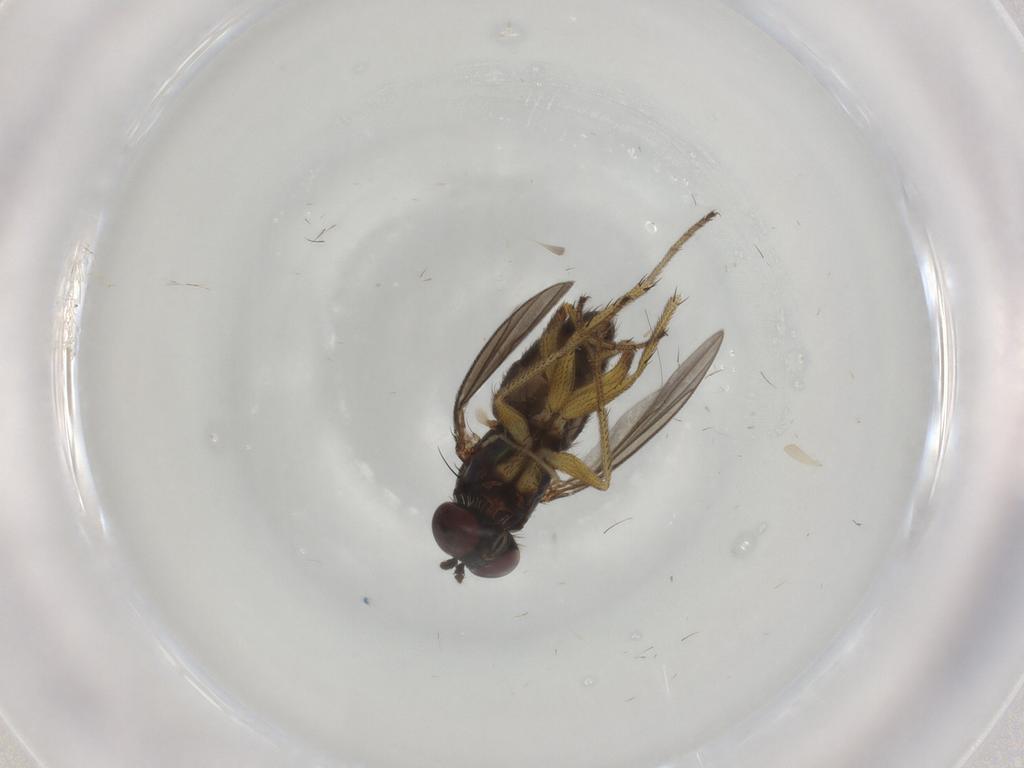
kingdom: Animalia
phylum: Arthropoda
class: Insecta
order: Diptera
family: Dolichopodidae
